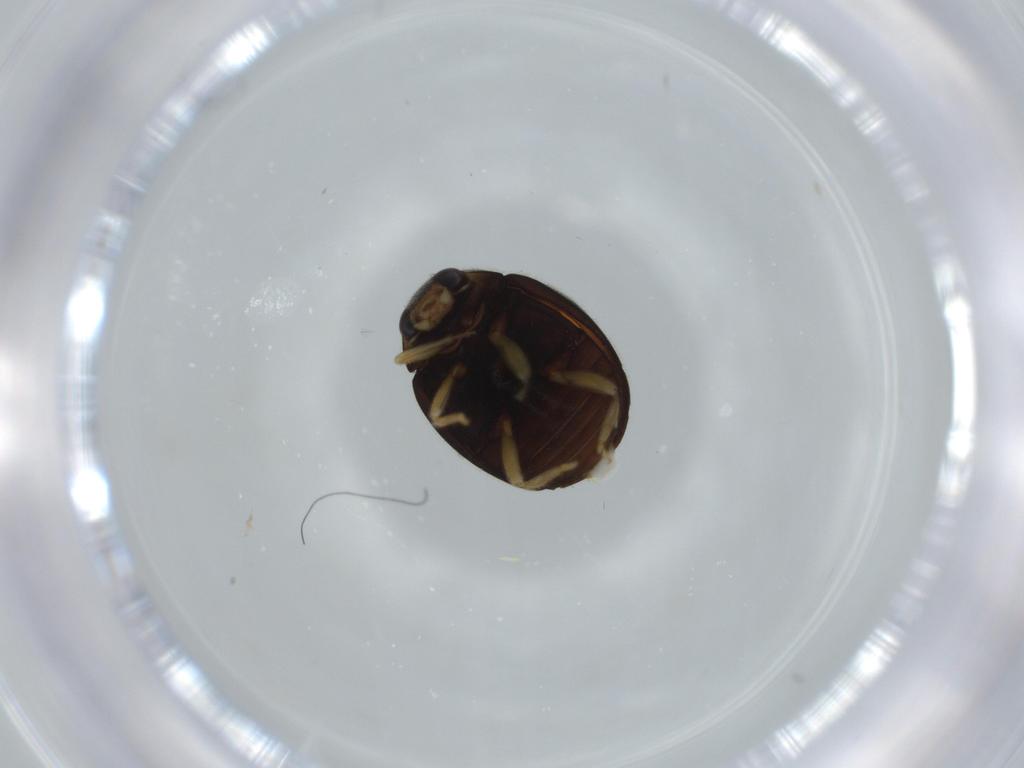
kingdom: Animalia
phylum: Arthropoda
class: Insecta
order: Coleoptera
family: Coccinellidae
